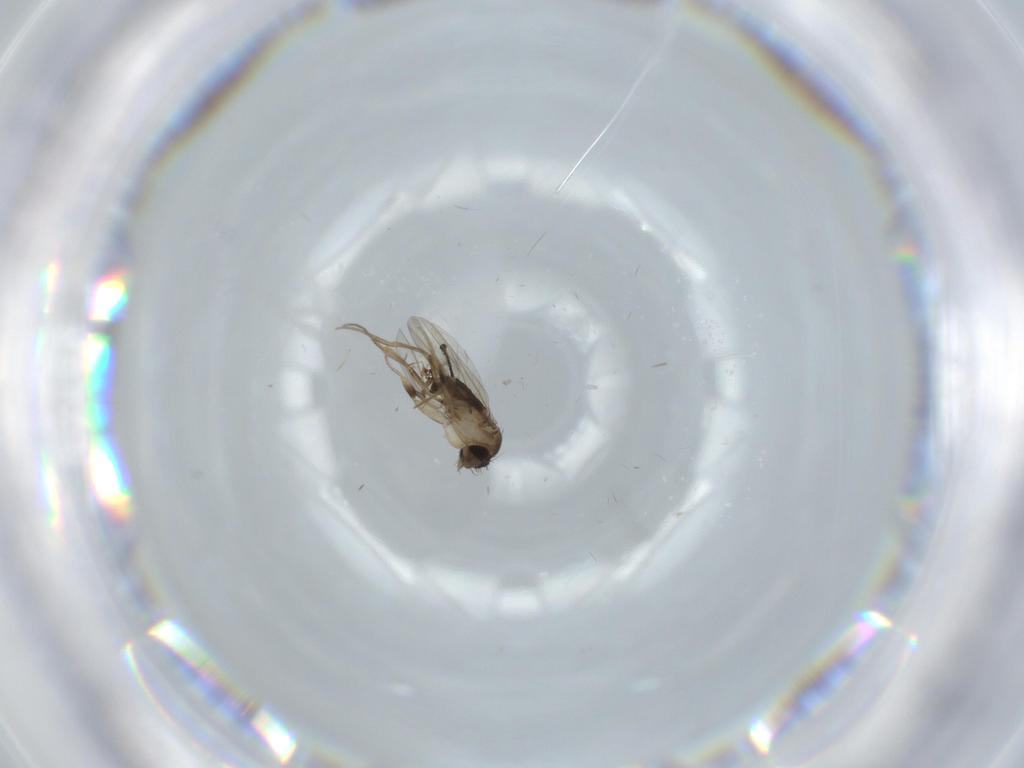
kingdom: Animalia
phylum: Arthropoda
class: Insecta
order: Diptera
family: Phoridae
